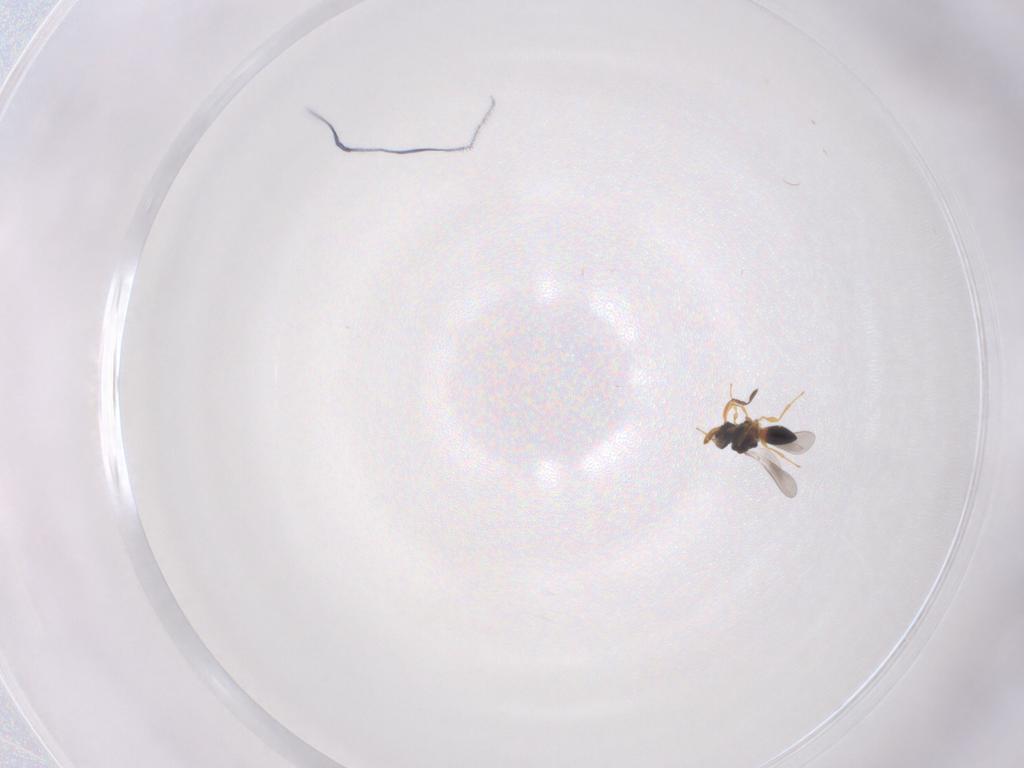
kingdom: Animalia
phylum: Arthropoda
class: Insecta
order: Hymenoptera
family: Platygastridae
